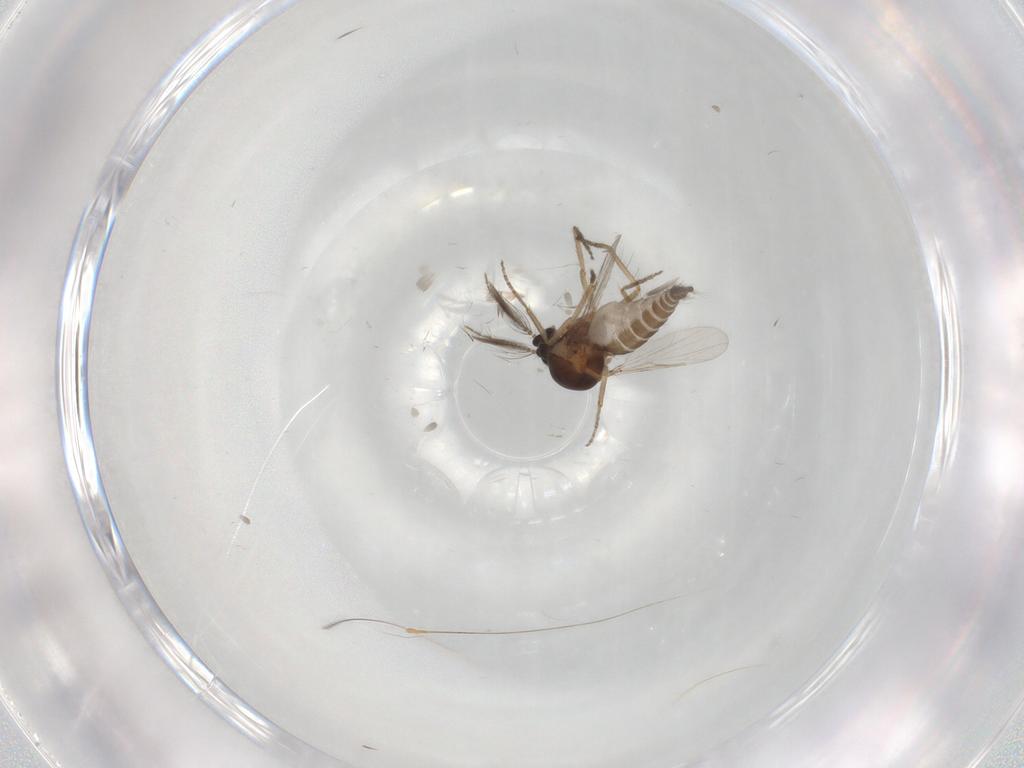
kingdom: Animalia
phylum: Arthropoda
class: Insecta
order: Diptera
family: Ceratopogonidae
